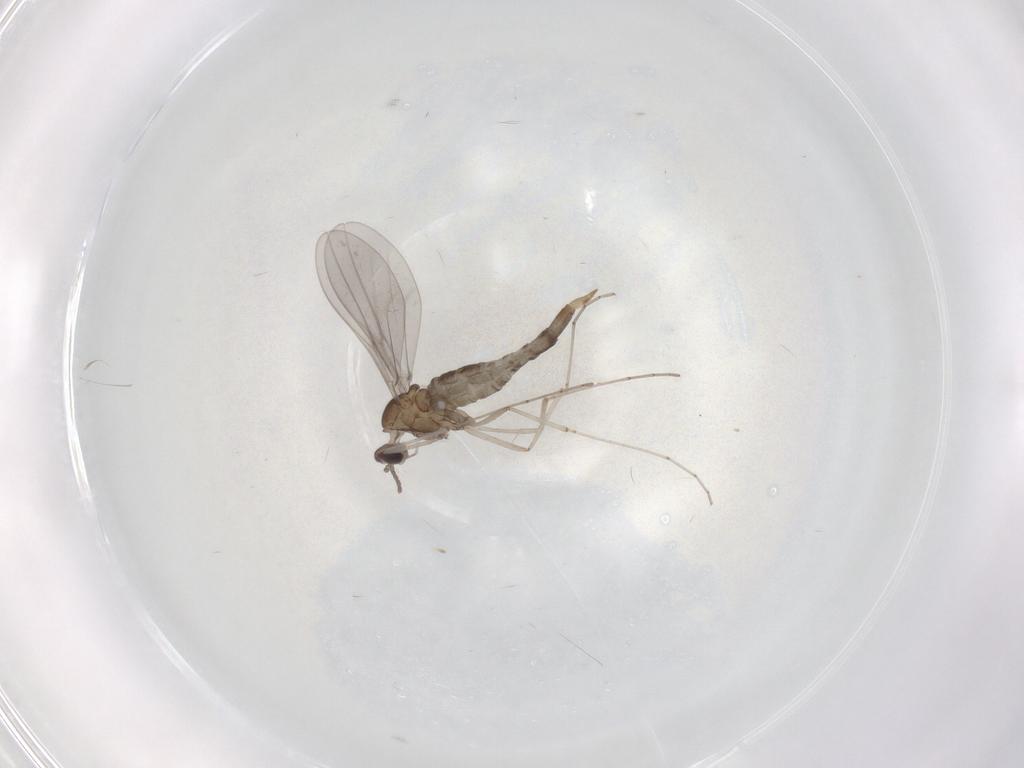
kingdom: Animalia
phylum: Arthropoda
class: Insecta
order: Diptera
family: Cecidomyiidae
